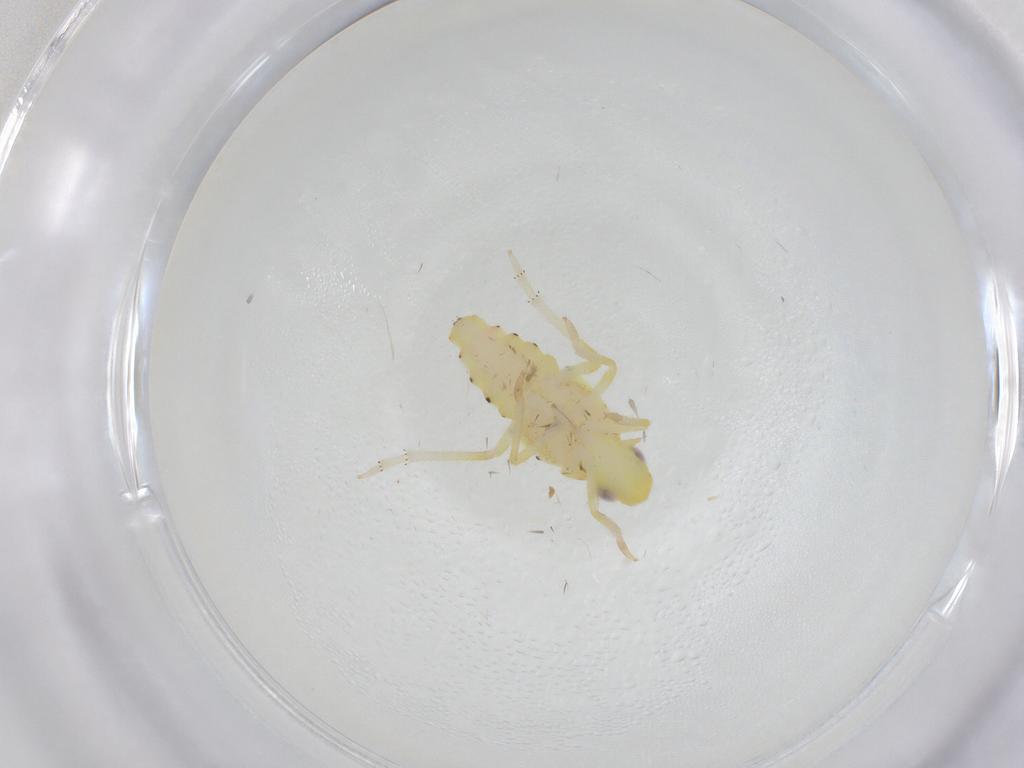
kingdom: Animalia
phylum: Arthropoda
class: Insecta
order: Hemiptera
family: Tropiduchidae
